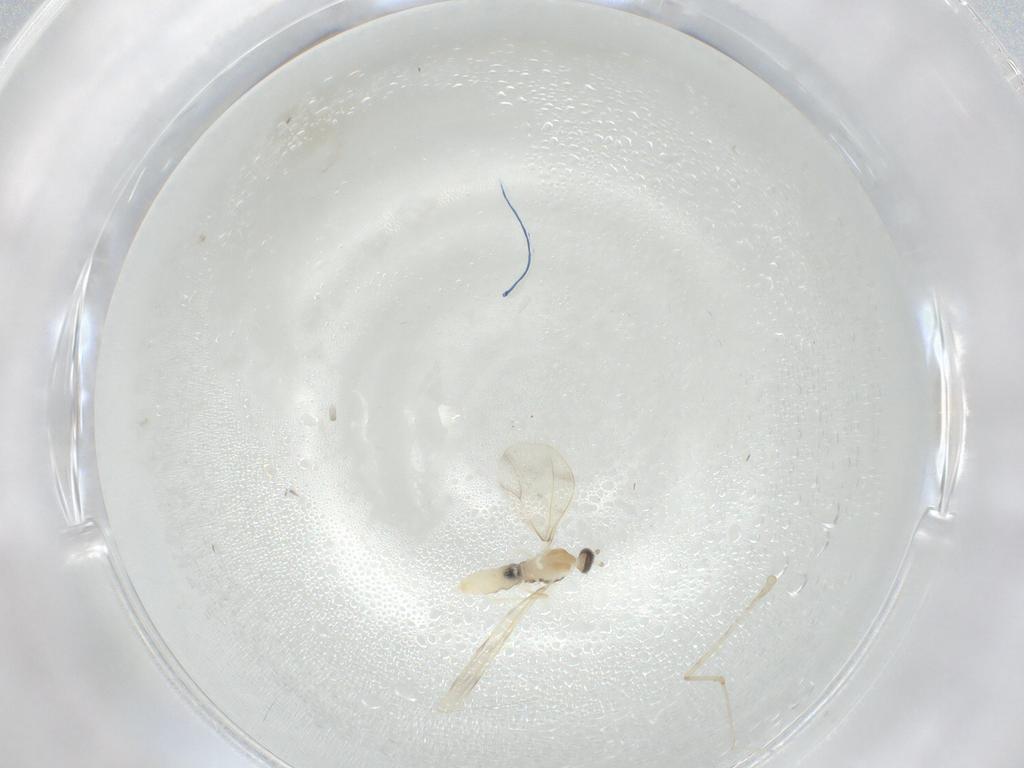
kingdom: Animalia
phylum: Arthropoda
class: Insecta
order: Diptera
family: Cecidomyiidae
